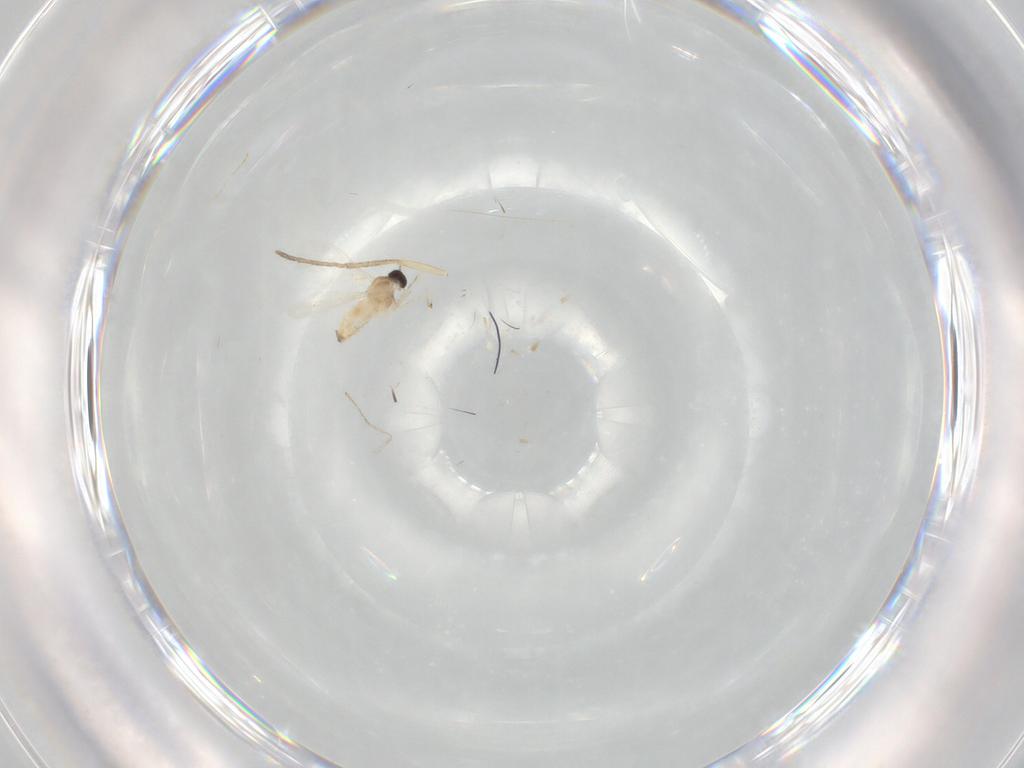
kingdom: Animalia
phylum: Arthropoda
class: Insecta
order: Diptera
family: Cecidomyiidae
